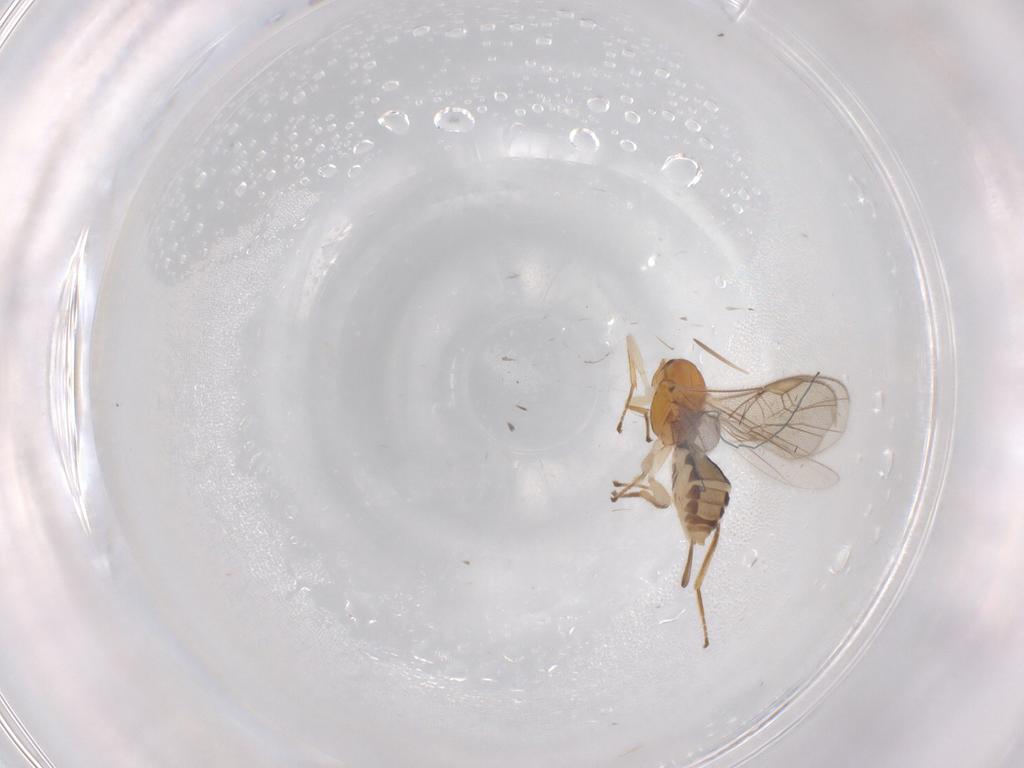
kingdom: Animalia
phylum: Arthropoda
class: Insecta
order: Hymenoptera
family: Braconidae
